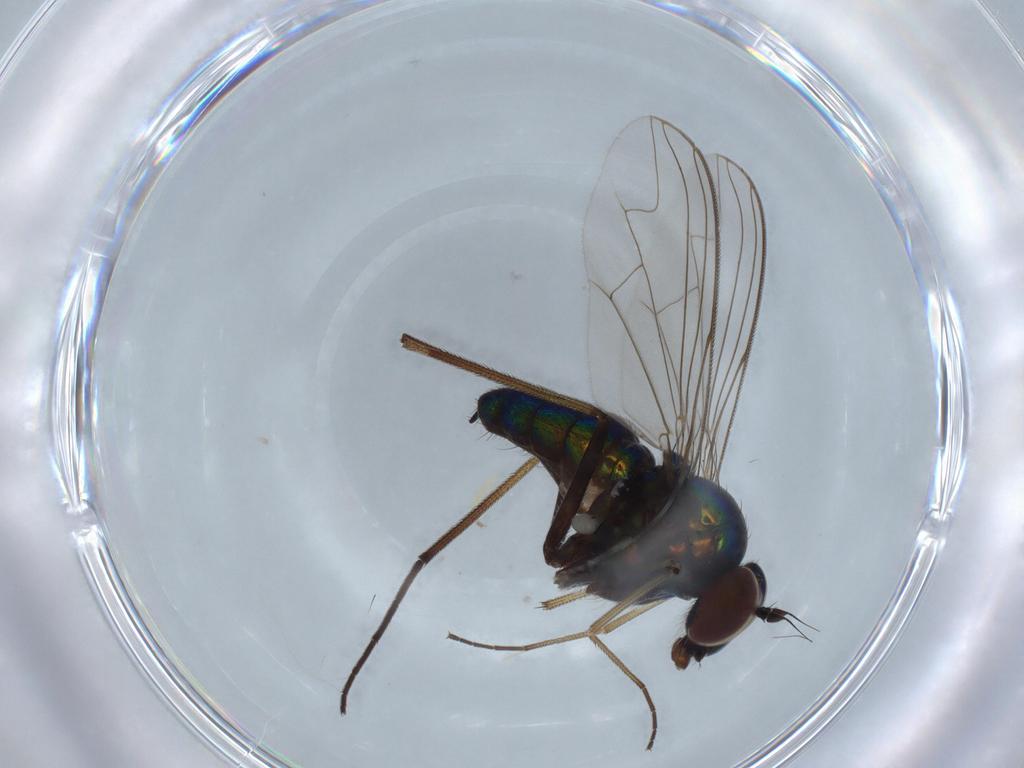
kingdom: Animalia
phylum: Arthropoda
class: Insecta
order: Diptera
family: Dolichopodidae
